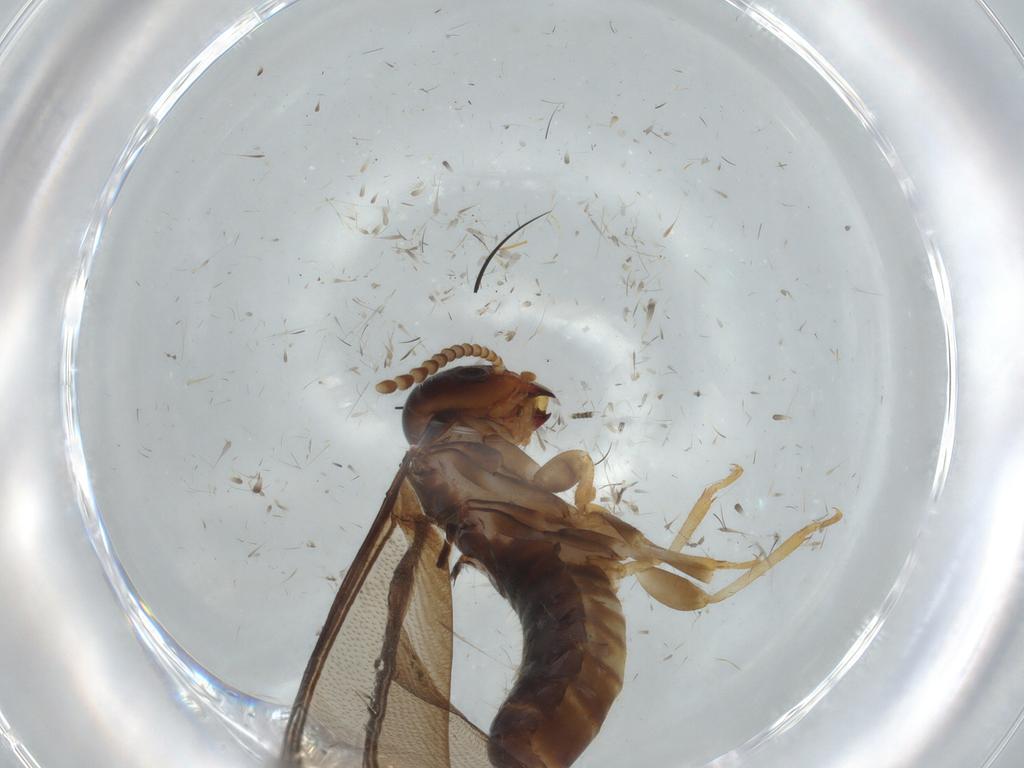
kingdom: Animalia
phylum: Arthropoda
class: Insecta
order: Blattodea
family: Kalotermitidae
